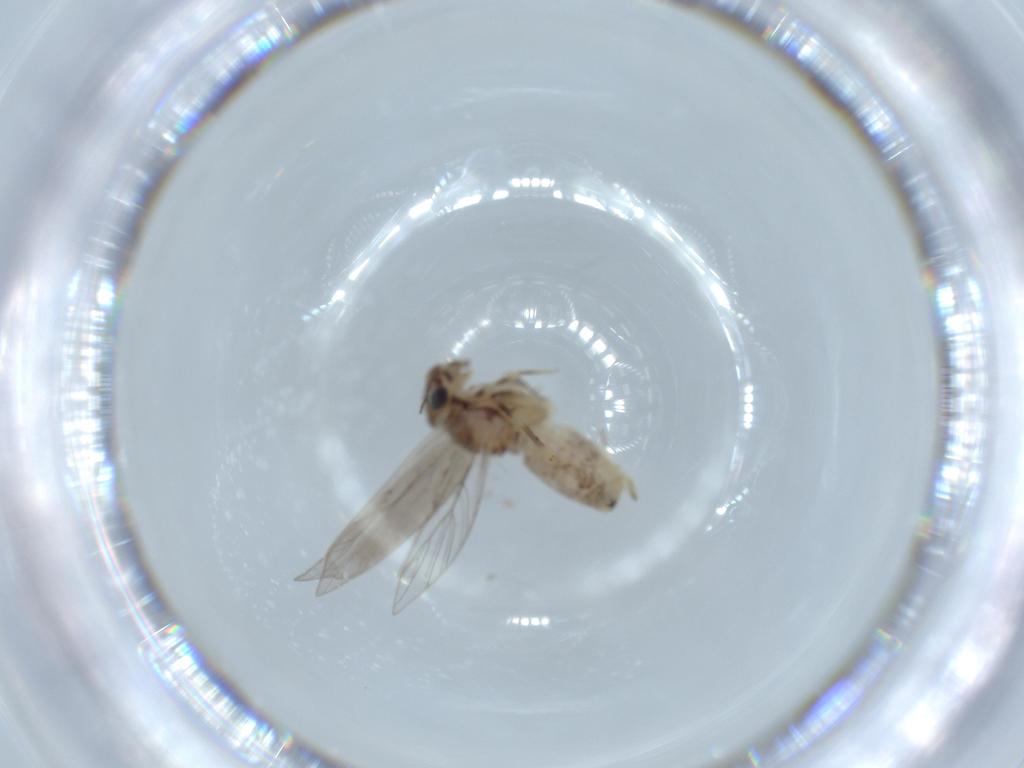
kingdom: Animalia
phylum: Arthropoda
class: Insecta
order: Psocodea
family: Lepidopsocidae
